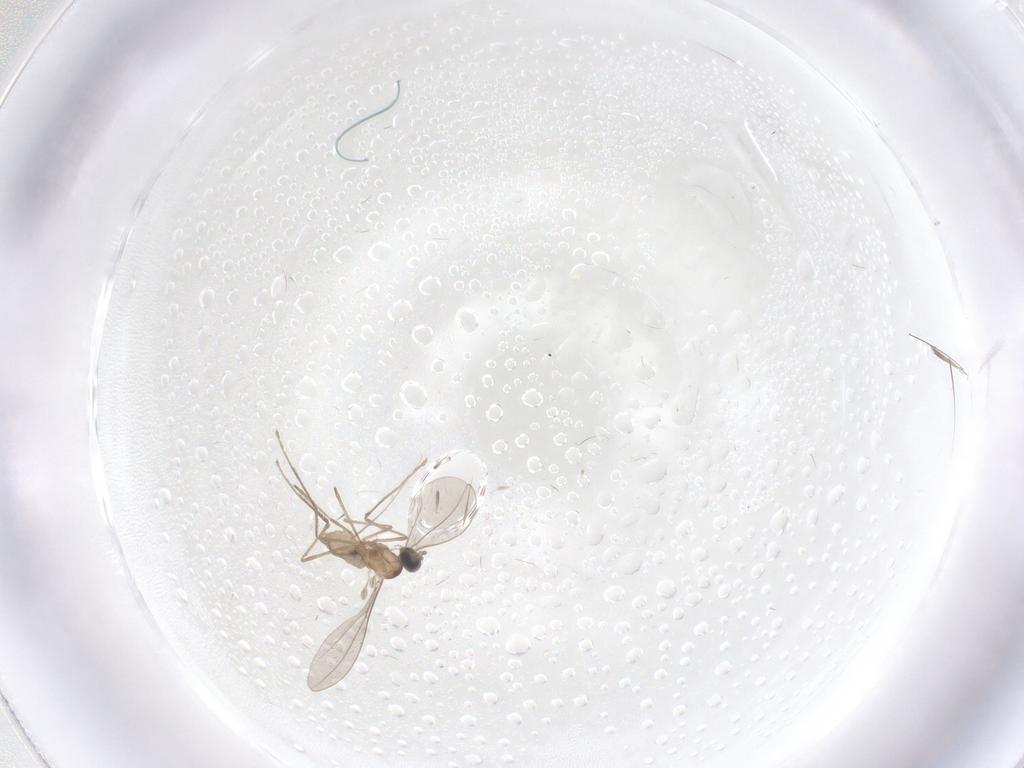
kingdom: Animalia
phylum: Arthropoda
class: Insecta
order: Diptera
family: Cecidomyiidae
